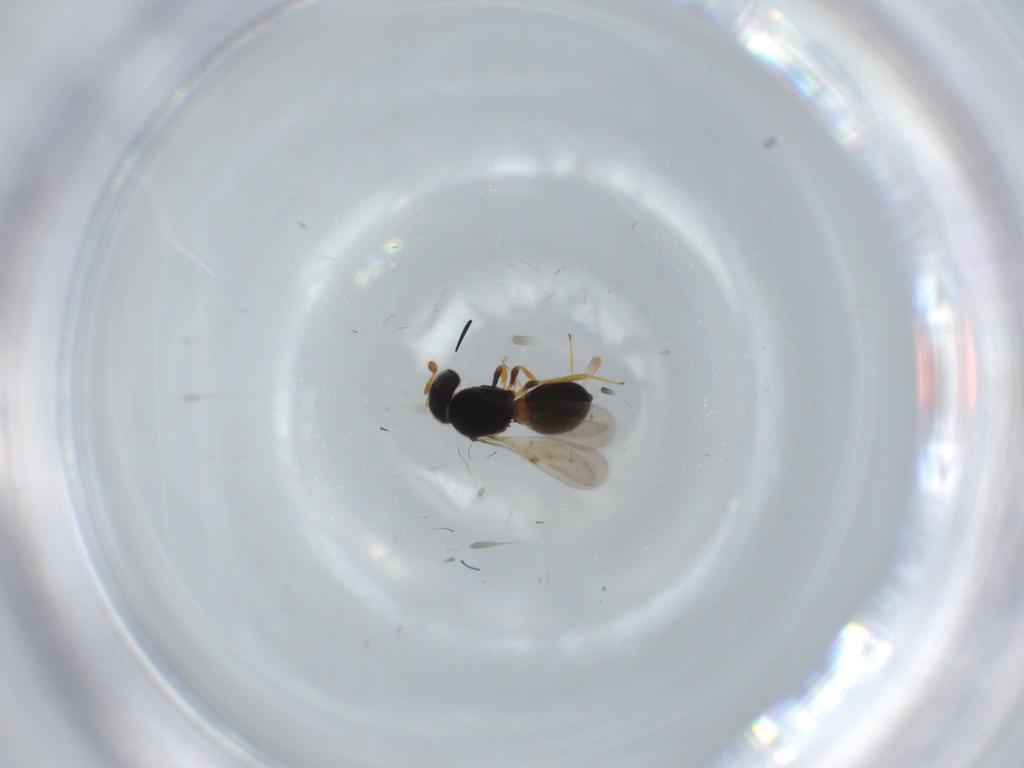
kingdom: Animalia
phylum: Arthropoda
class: Insecta
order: Hymenoptera
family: Scelionidae
